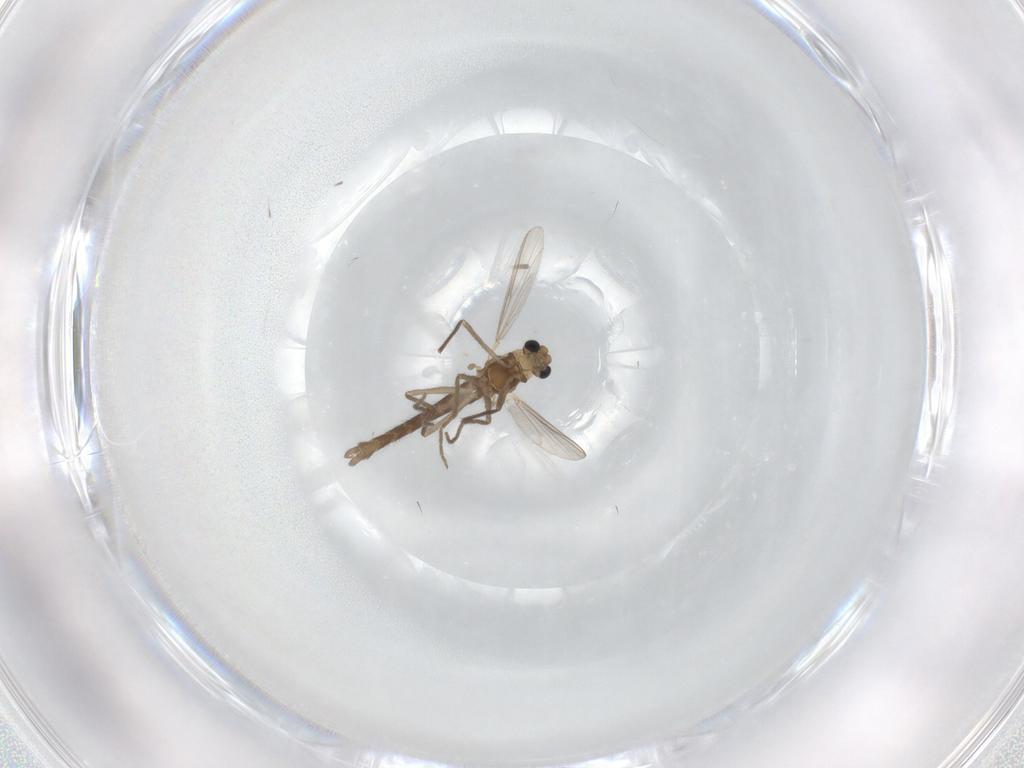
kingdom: Animalia
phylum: Arthropoda
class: Insecta
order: Diptera
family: Chironomidae
